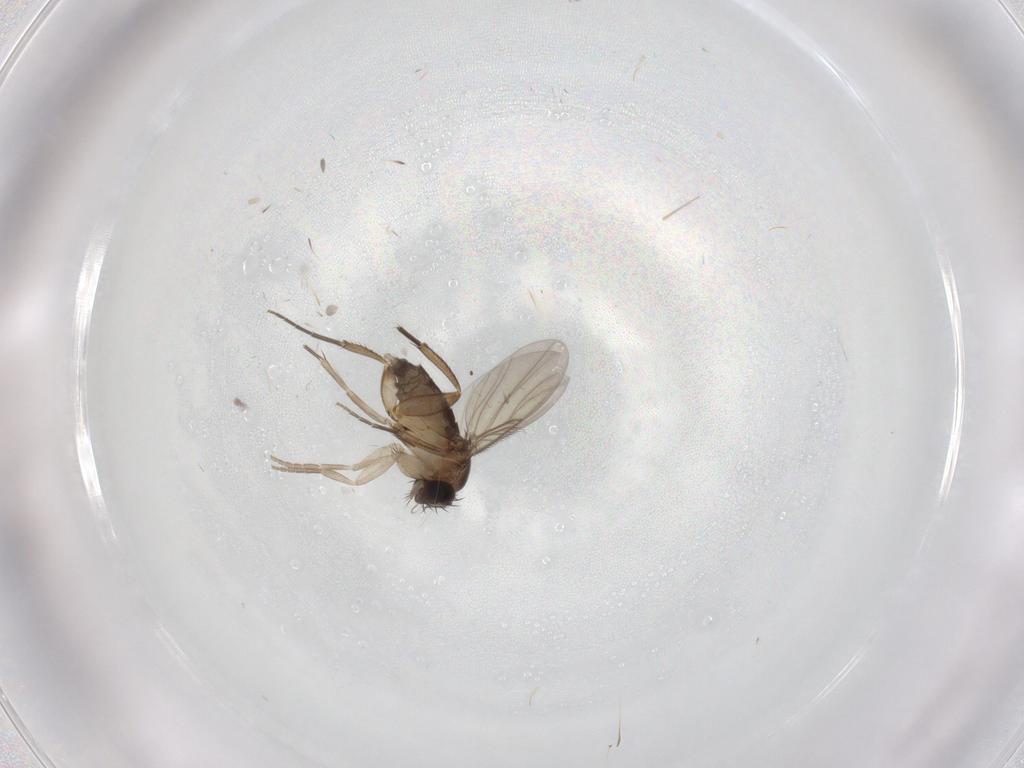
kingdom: Animalia
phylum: Arthropoda
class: Insecta
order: Diptera
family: Phoridae
